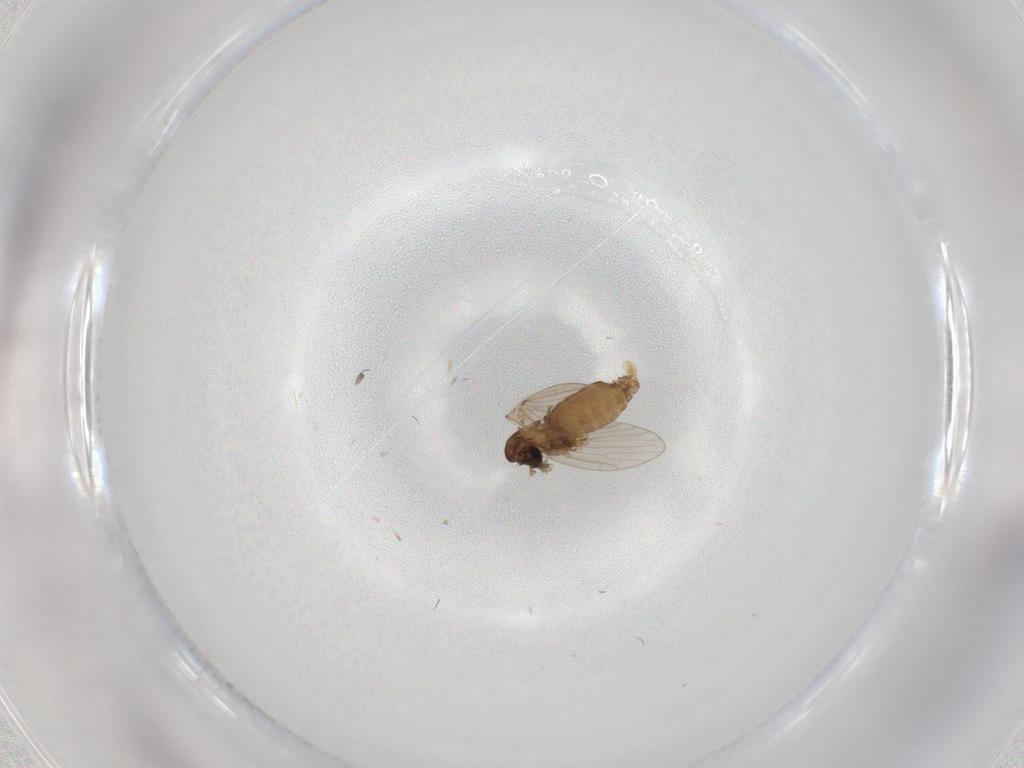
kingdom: Animalia
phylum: Arthropoda
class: Insecta
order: Diptera
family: Psychodidae
